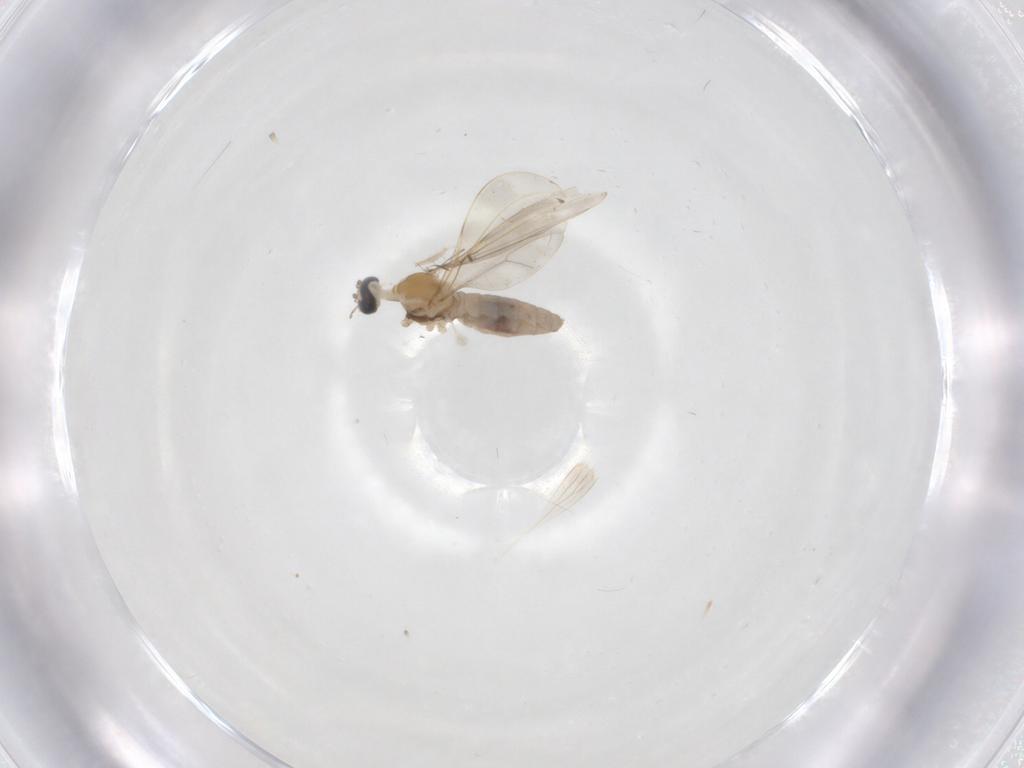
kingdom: Animalia
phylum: Arthropoda
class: Insecta
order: Diptera
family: Cecidomyiidae
